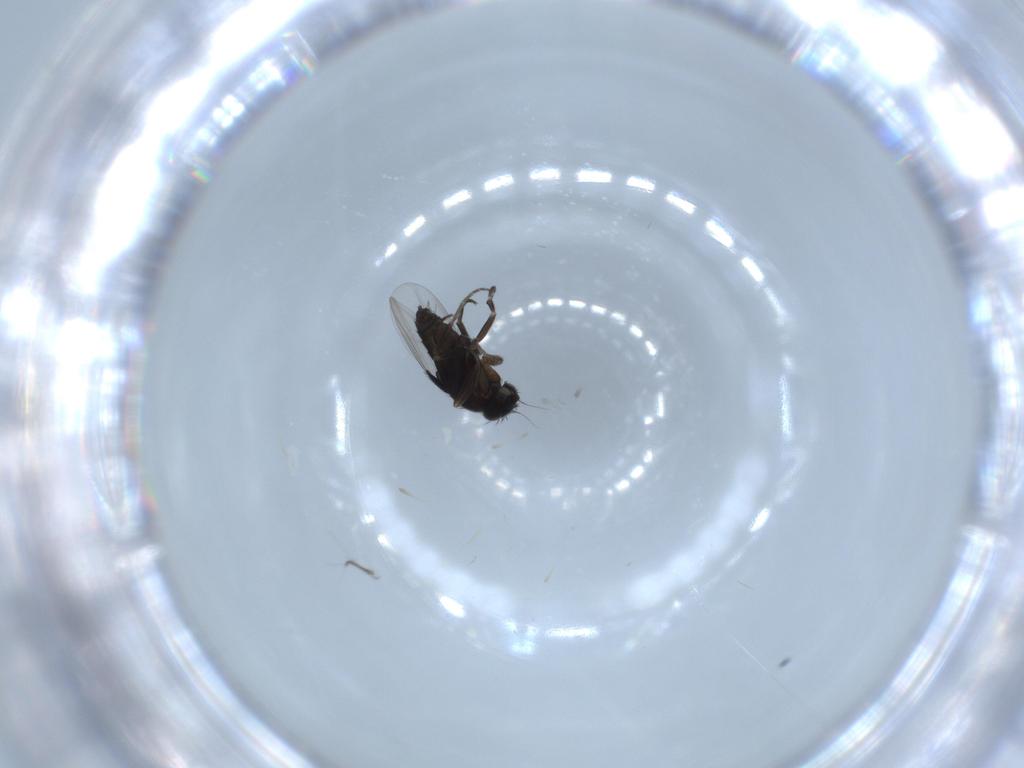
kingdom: Animalia
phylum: Arthropoda
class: Insecta
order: Diptera
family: Phoridae
